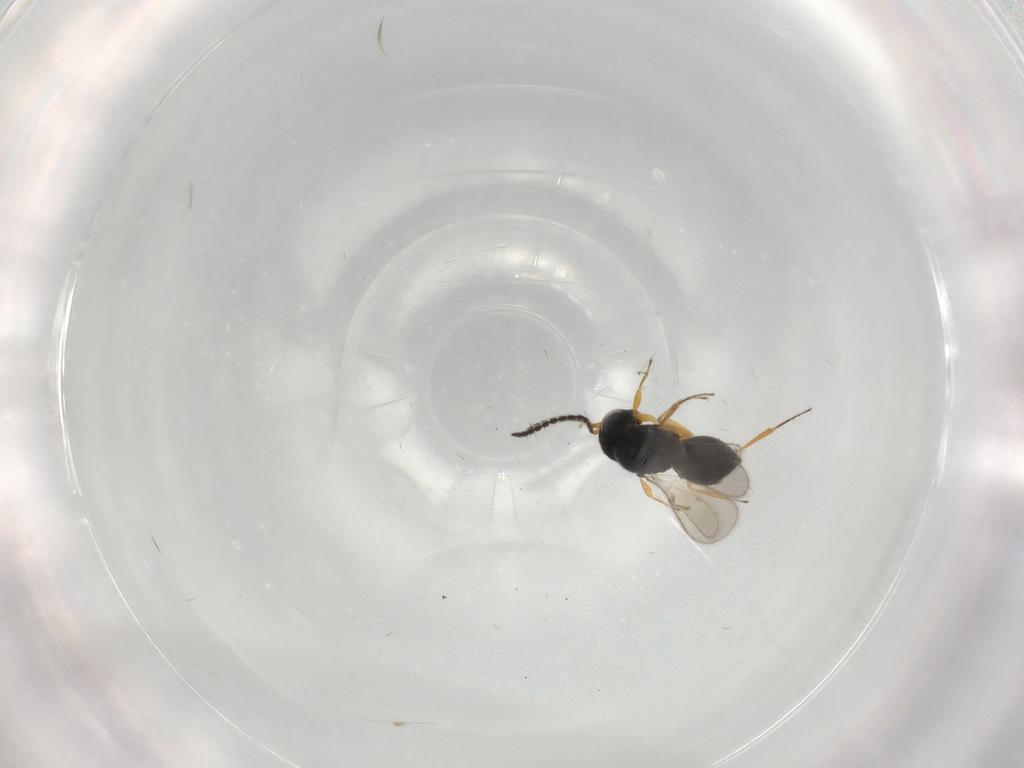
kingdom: Animalia
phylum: Arthropoda
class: Insecta
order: Hymenoptera
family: Scelionidae
